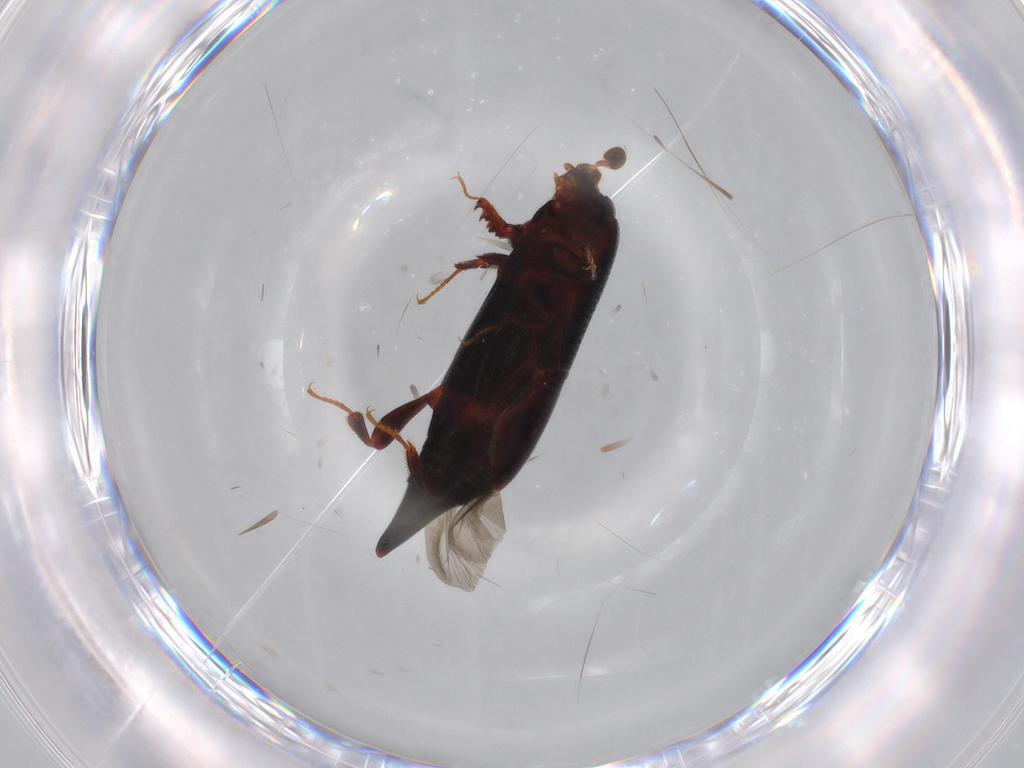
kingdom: Animalia
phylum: Arthropoda
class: Insecta
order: Coleoptera
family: Histeridae
